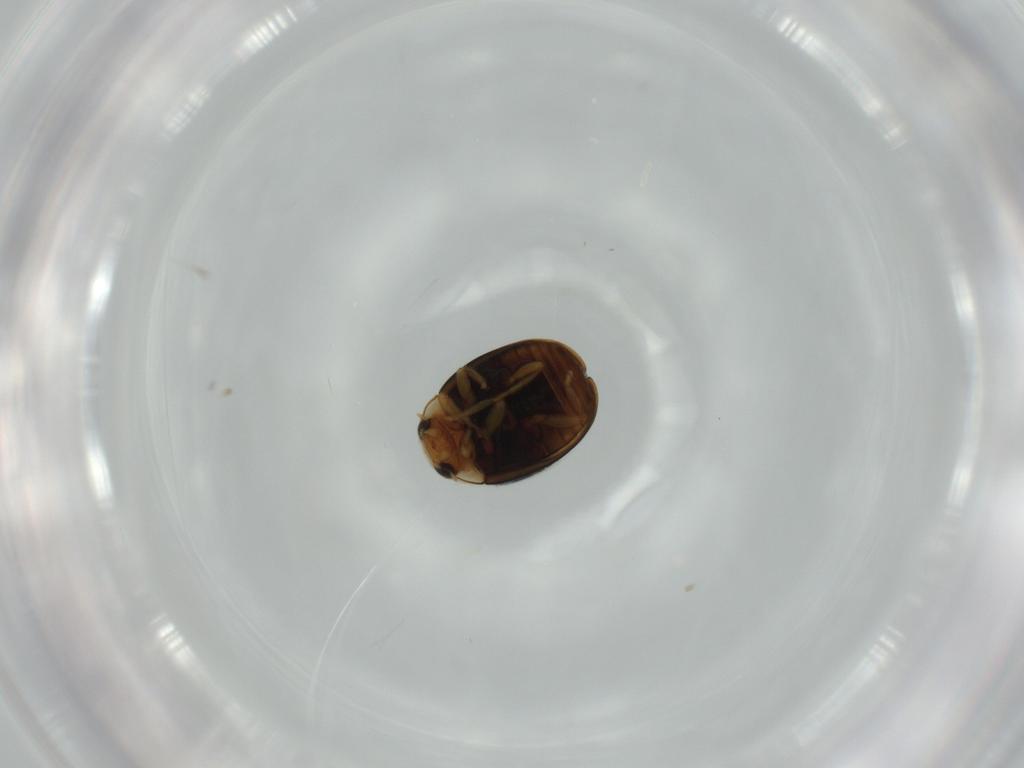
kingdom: Animalia
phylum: Arthropoda
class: Insecta
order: Coleoptera
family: Coccinellidae
